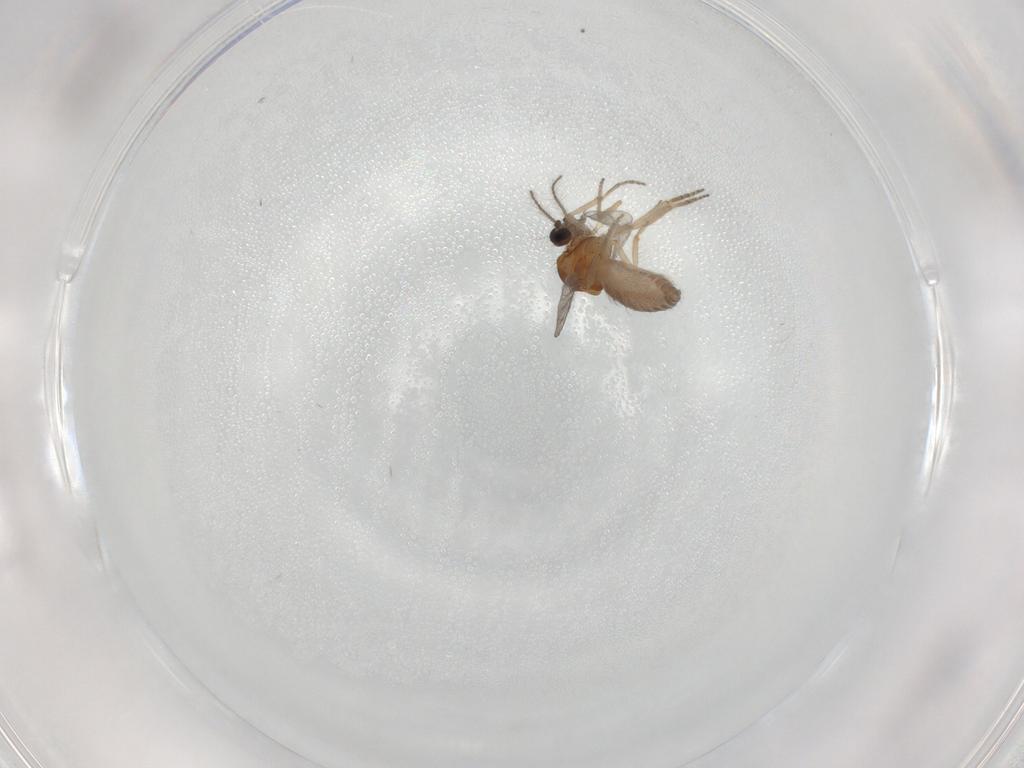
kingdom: Animalia
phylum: Arthropoda
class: Insecta
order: Diptera
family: Ceratopogonidae
